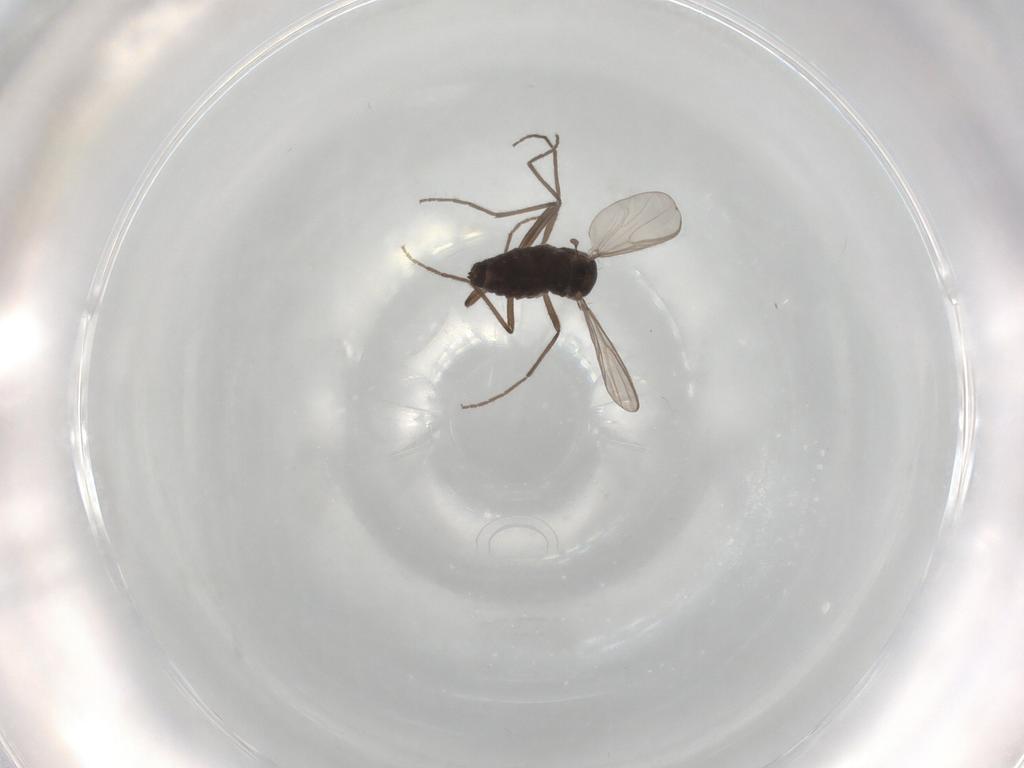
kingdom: Animalia
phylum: Arthropoda
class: Insecta
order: Diptera
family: Chironomidae
